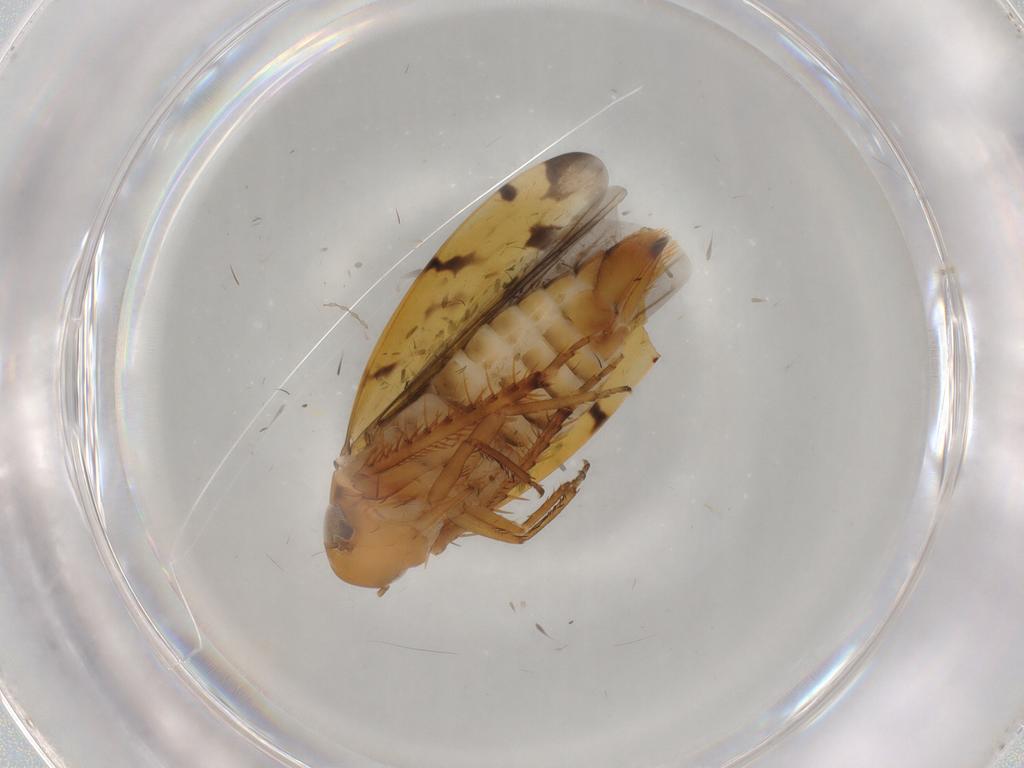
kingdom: Animalia
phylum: Arthropoda
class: Insecta
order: Hemiptera
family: Cicadellidae
